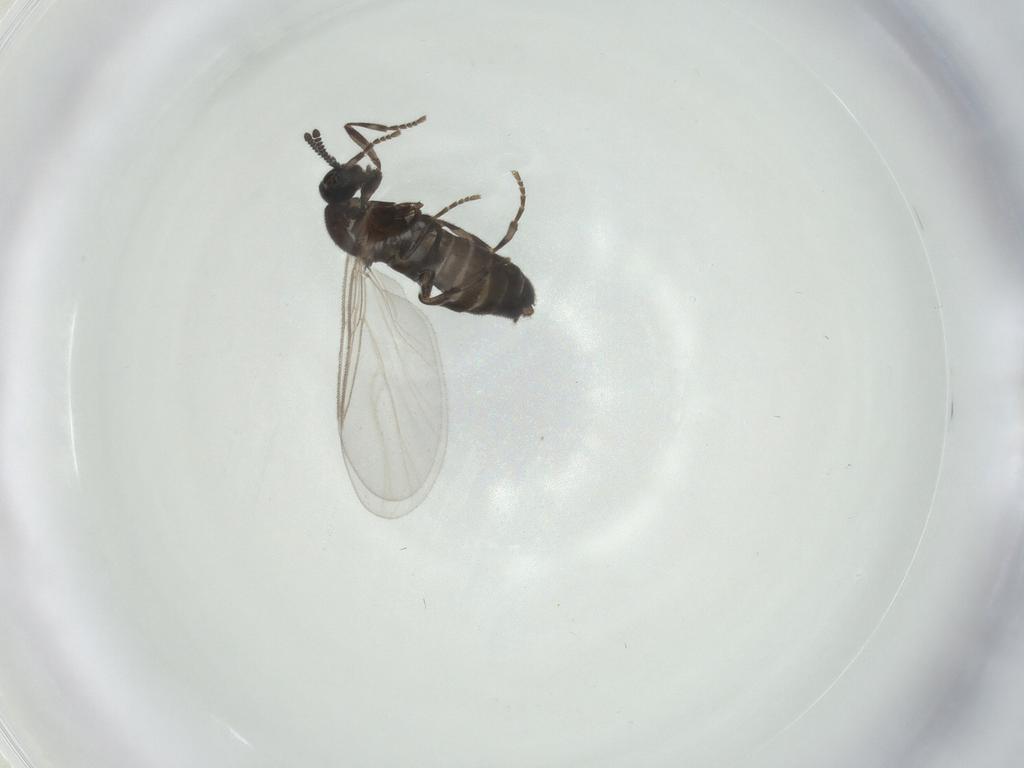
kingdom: Animalia
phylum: Arthropoda
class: Insecta
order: Diptera
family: Scatopsidae
